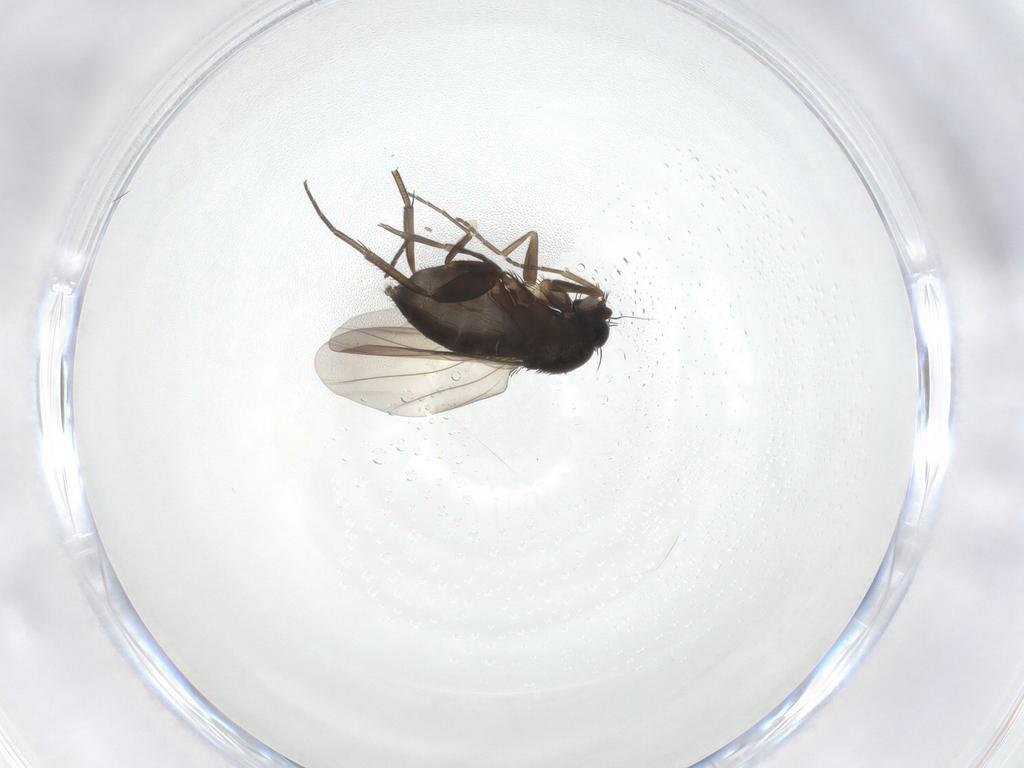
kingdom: Animalia
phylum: Arthropoda
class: Insecta
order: Diptera
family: Phoridae
